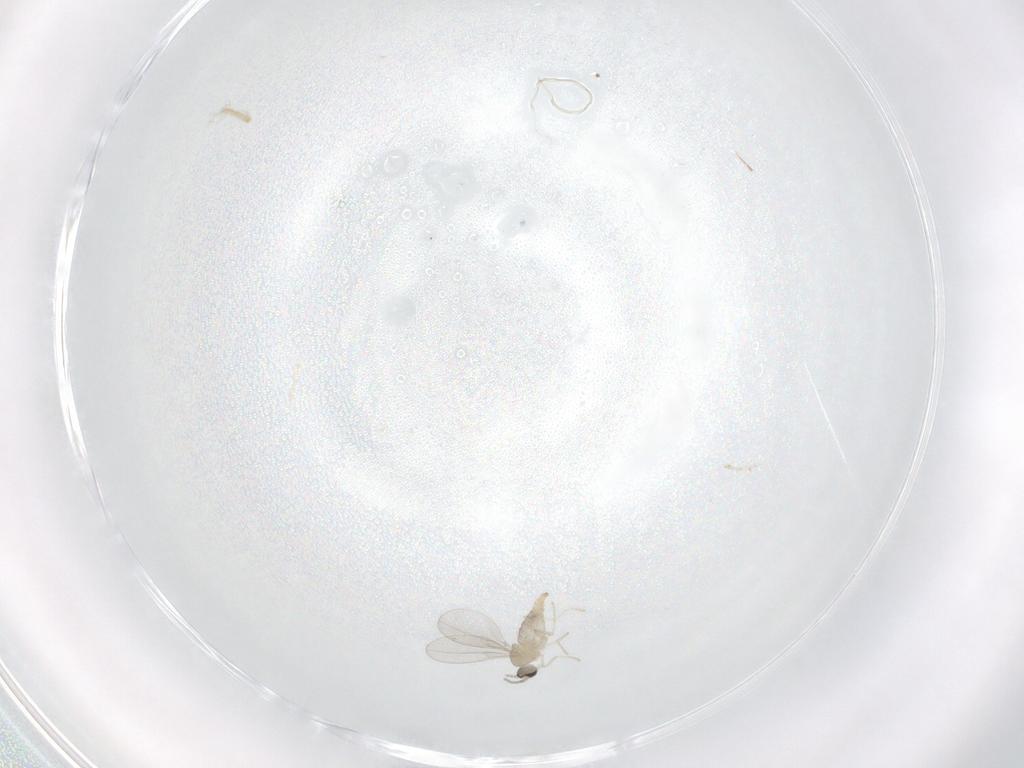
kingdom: Animalia
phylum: Arthropoda
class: Insecta
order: Diptera
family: Cecidomyiidae
